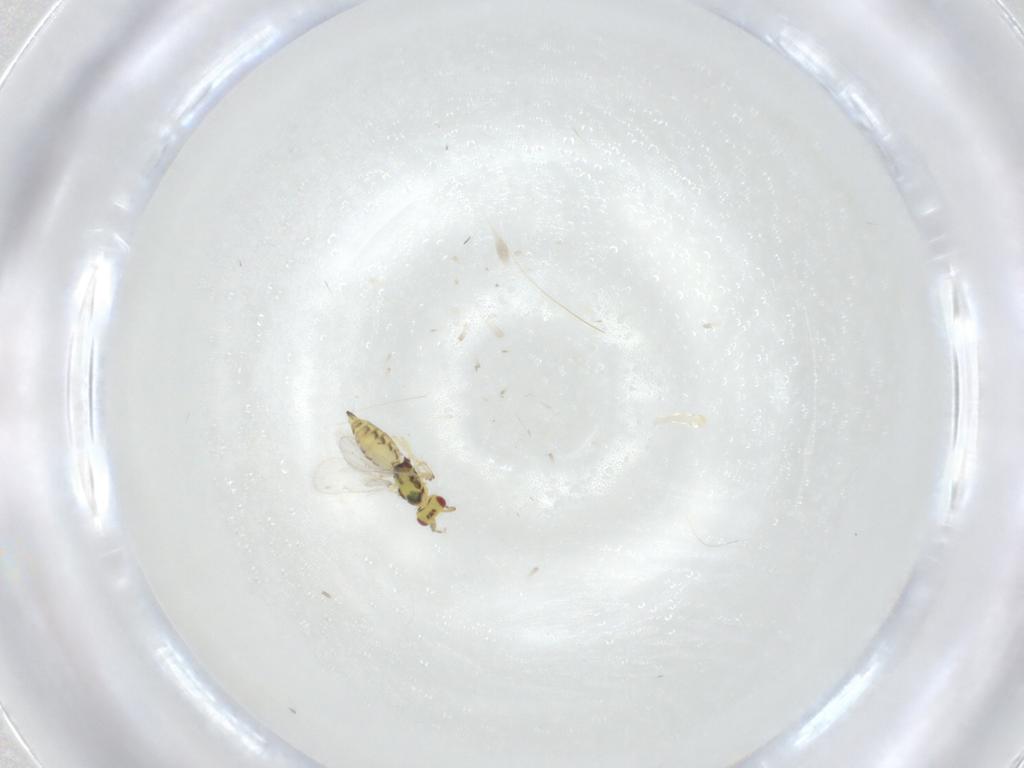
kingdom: Animalia
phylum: Arthropoda
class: Insecta
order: Hymenoptera
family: Eulophidae
